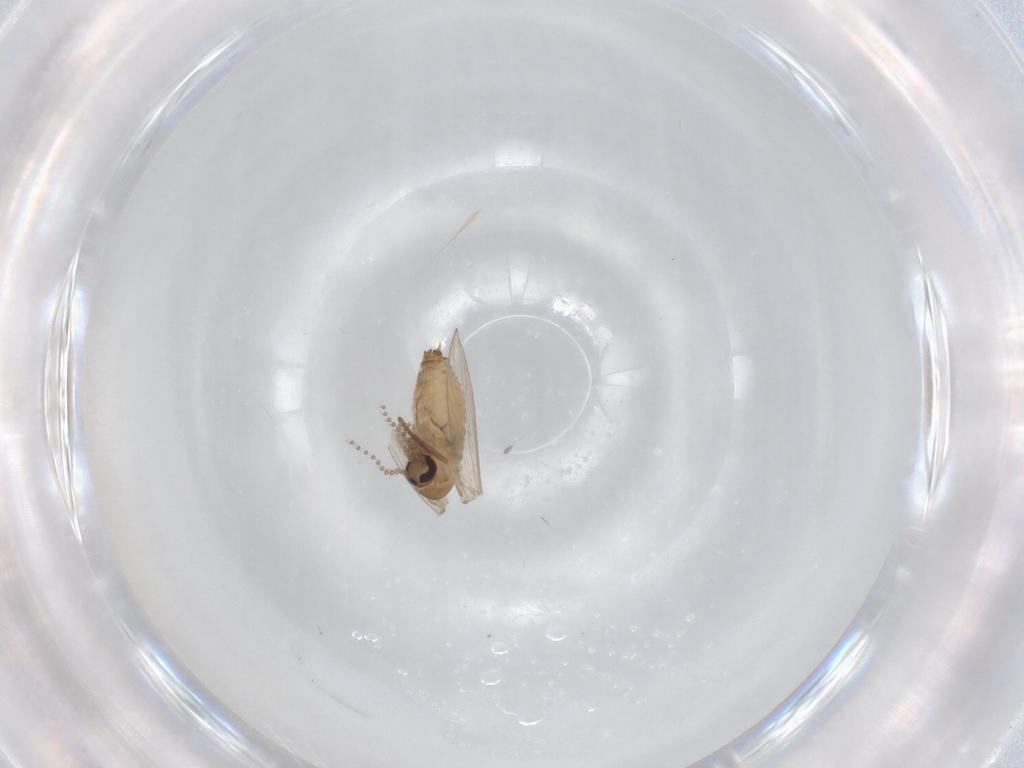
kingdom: Animalia
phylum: Arthropoda
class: Insecta
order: Diptera
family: Psychodidae
